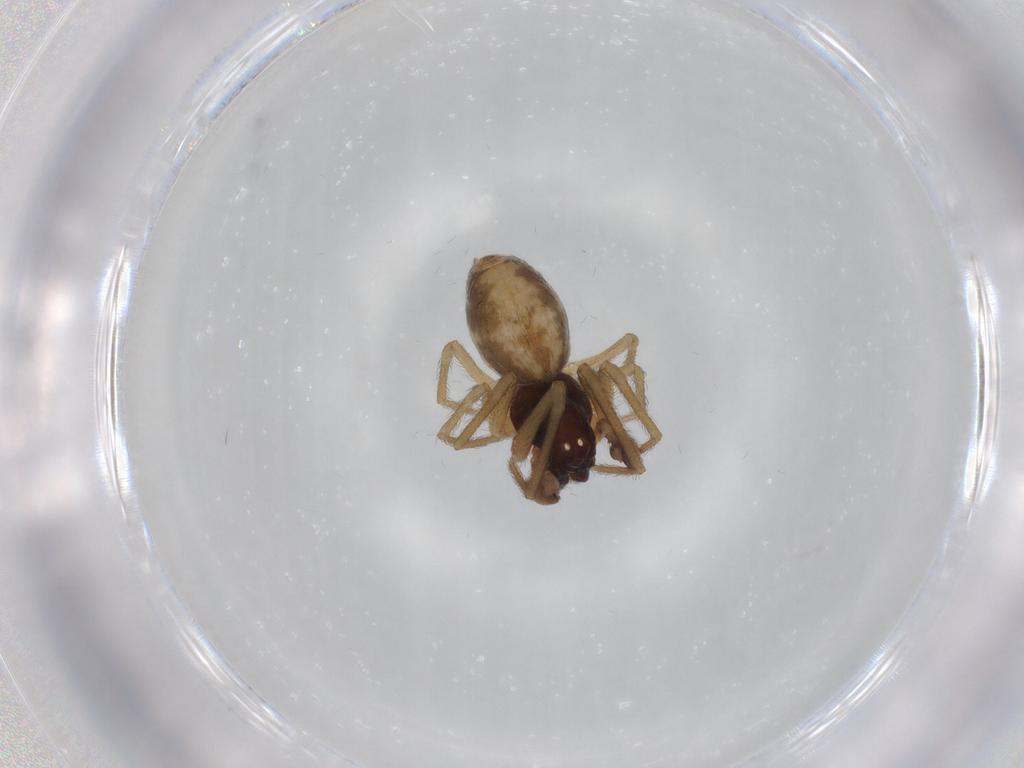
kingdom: Animalia
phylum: Arthropoda
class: Arachnida
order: Araneae
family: Dictynidae
